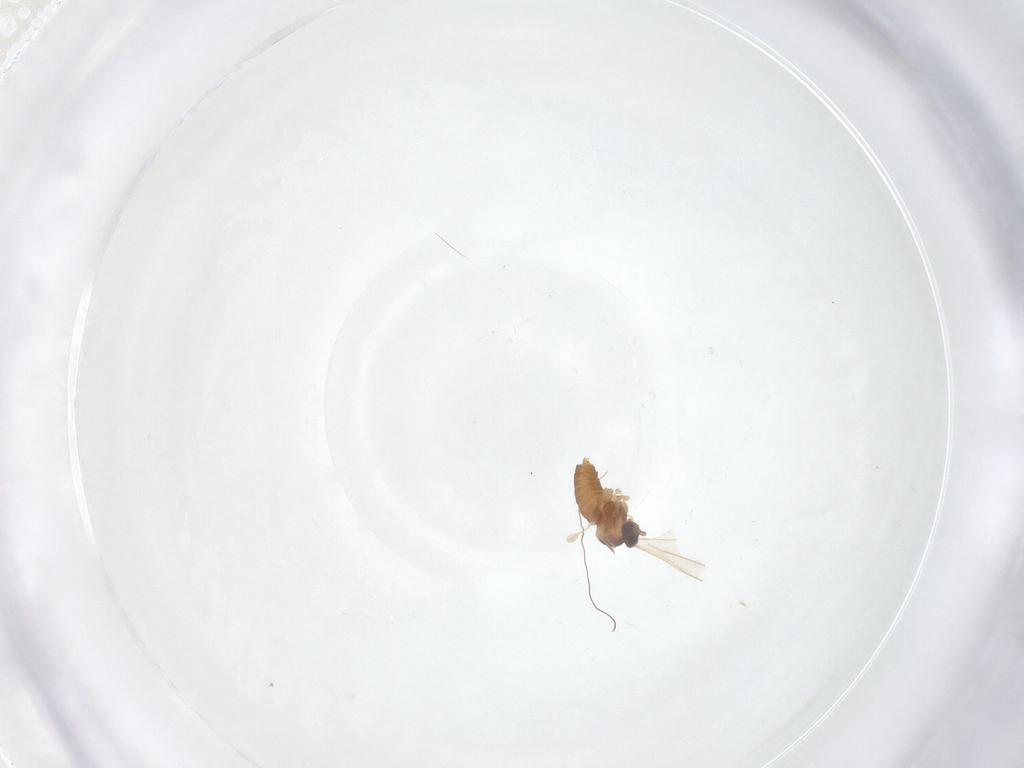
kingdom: Animalia
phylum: Arthropoda
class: Insecta
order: Diptera
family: Cecidomyiidae
